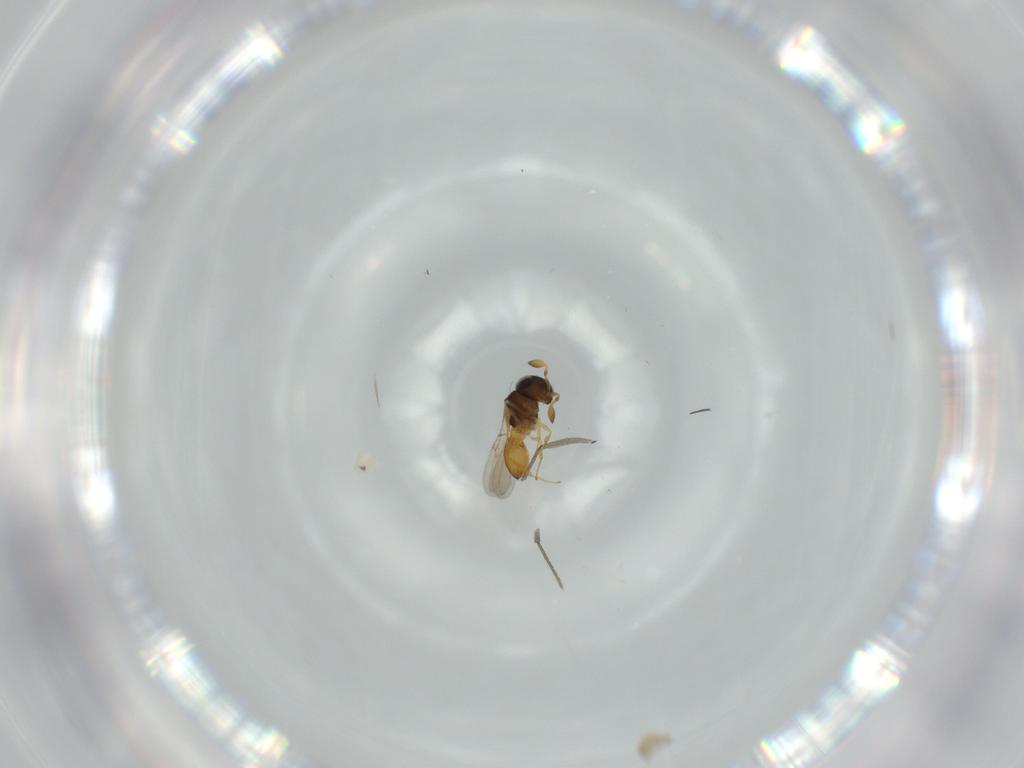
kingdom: Animalia
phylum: Arthropoda
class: Insecta
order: Hymenoptera
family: Scelionidae
